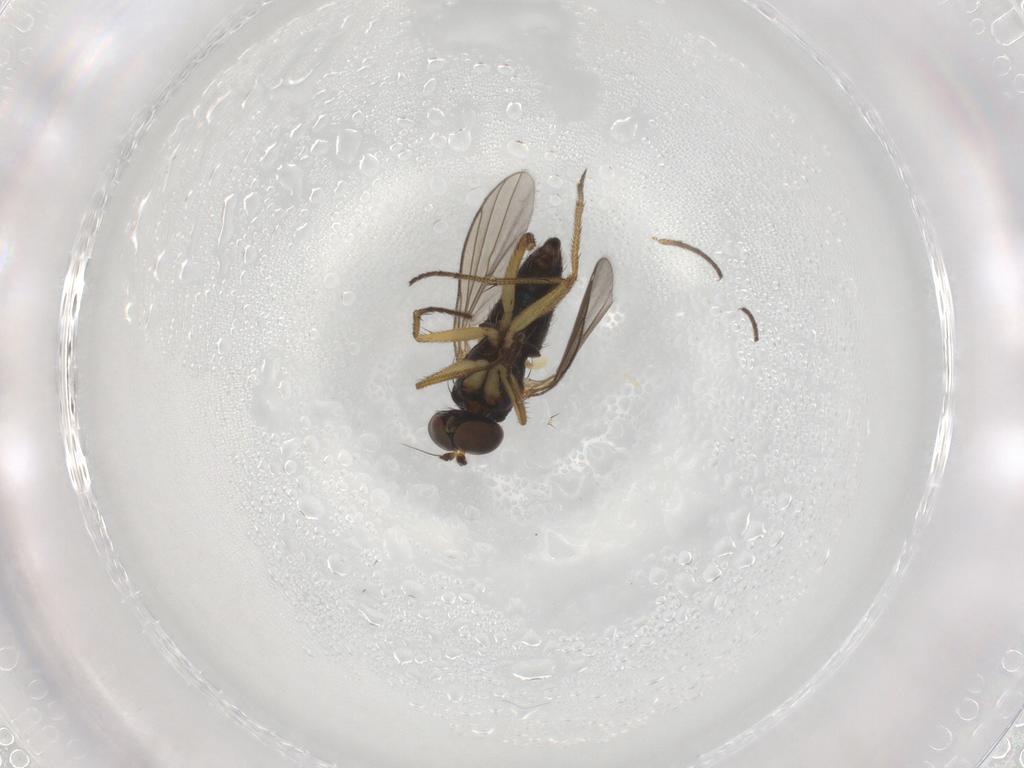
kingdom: Animalia
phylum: Arthropoda
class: Insecta
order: Diptera
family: Dolichopodidae
